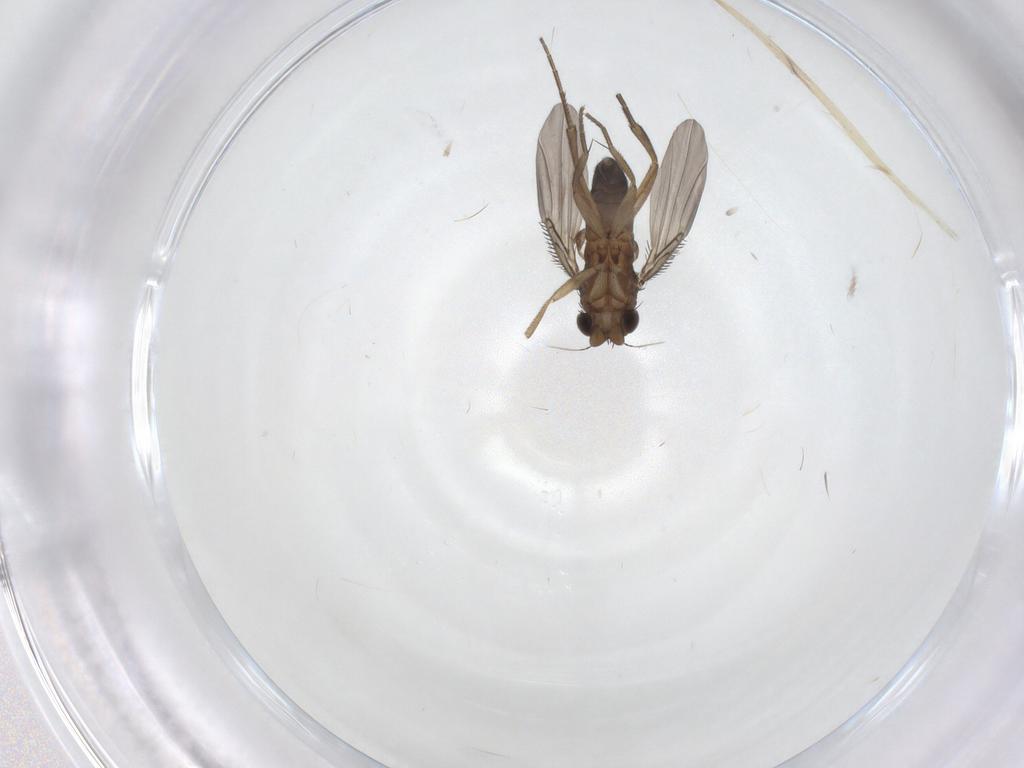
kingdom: Animalia
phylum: Arthropoda
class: Insecta
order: Diptera
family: Phoridae
